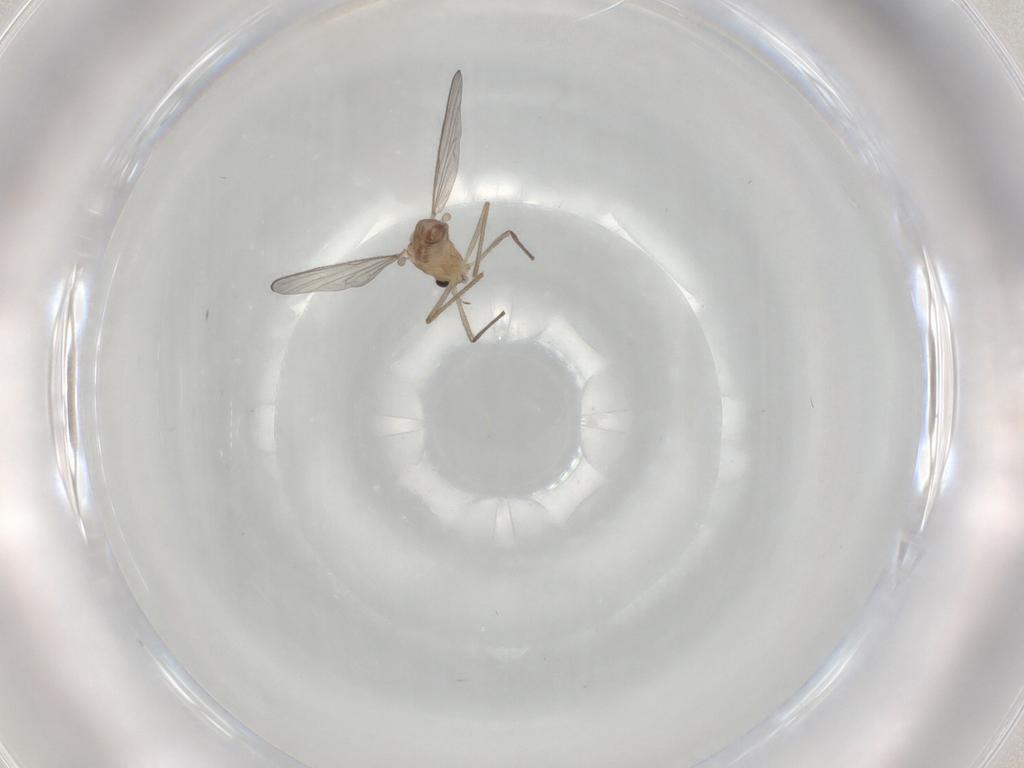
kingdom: Animalia
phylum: Arthropoda
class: Insecta
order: Diptera
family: Chironomidae
